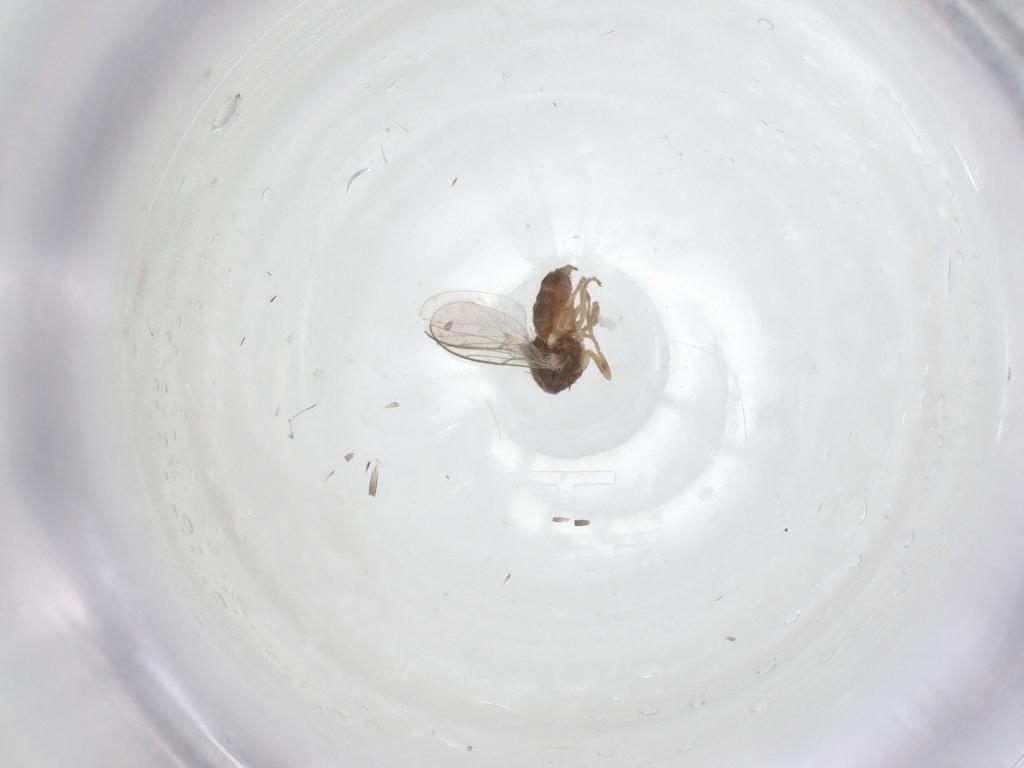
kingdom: Animalia
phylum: Arthropoda
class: Insecta
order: Diptera
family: Chloropidae
